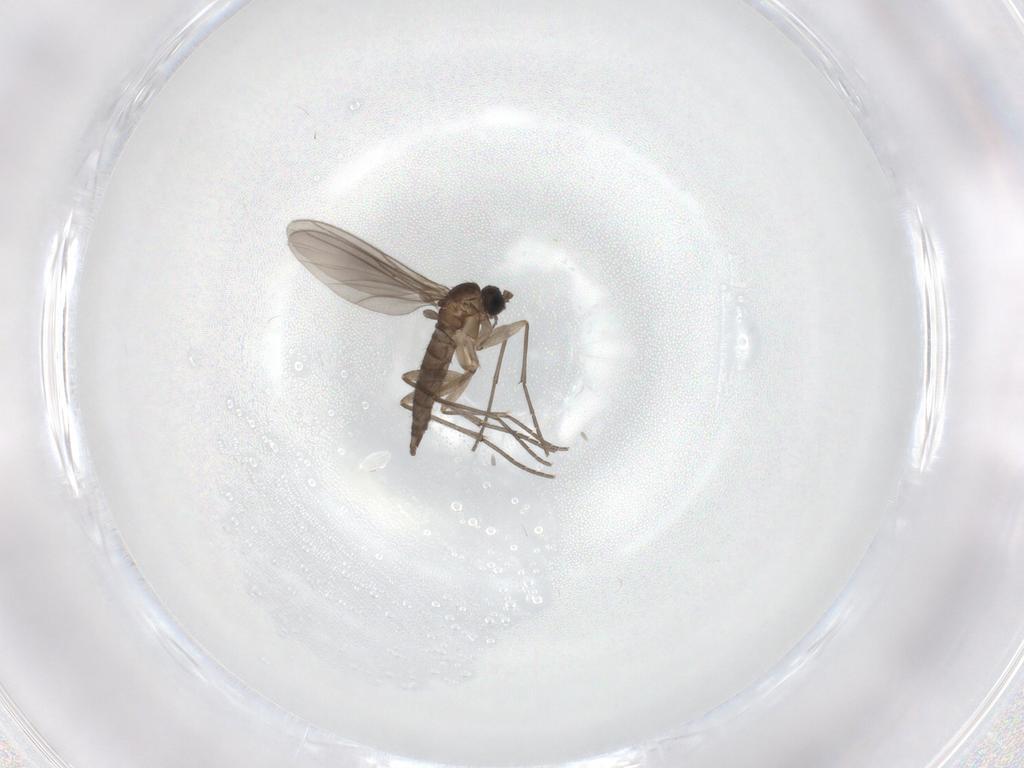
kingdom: Animalia
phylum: Arthropoda
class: Insecta
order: Diptera
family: Sciaridae
